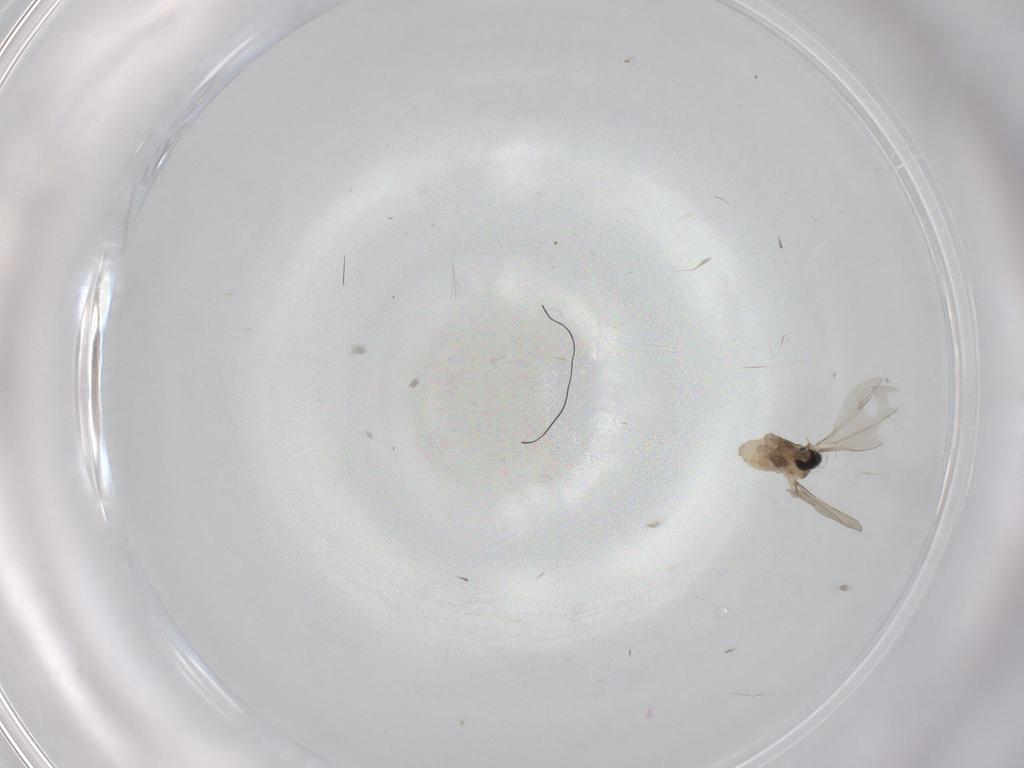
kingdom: Animalia
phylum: Arthropoda
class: Insecta
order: Diptera
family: Cecidomyiidae
